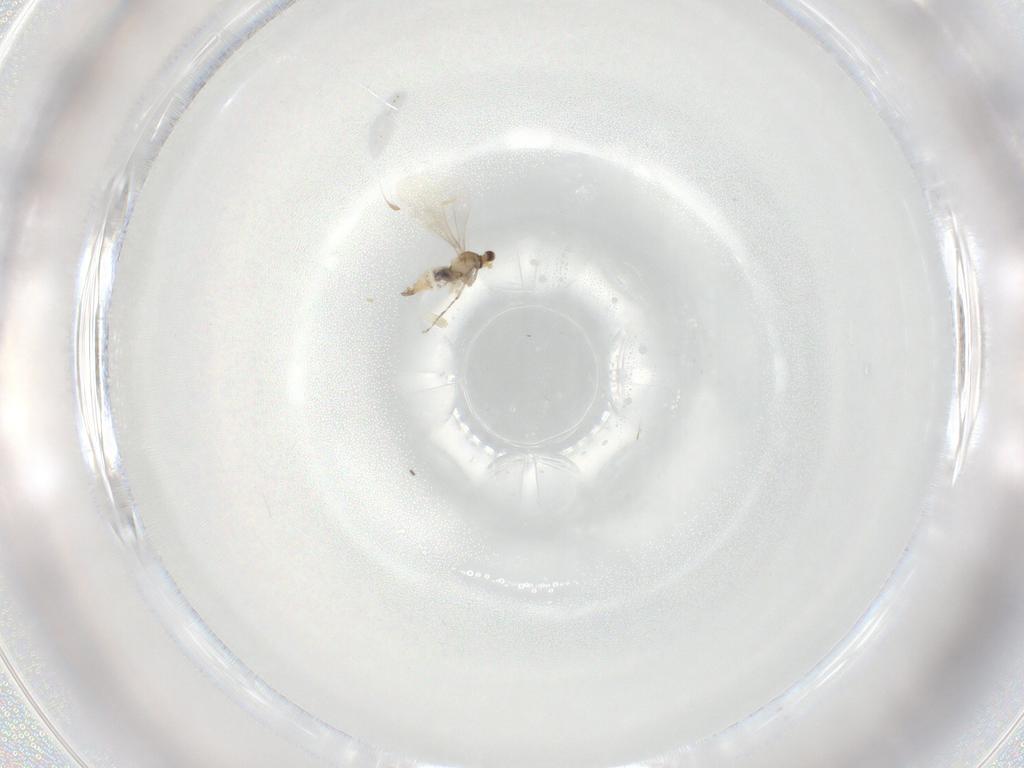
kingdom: Animalia
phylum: Arthropoda
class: Insecta
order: Diptera
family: Cecidomyiidae
